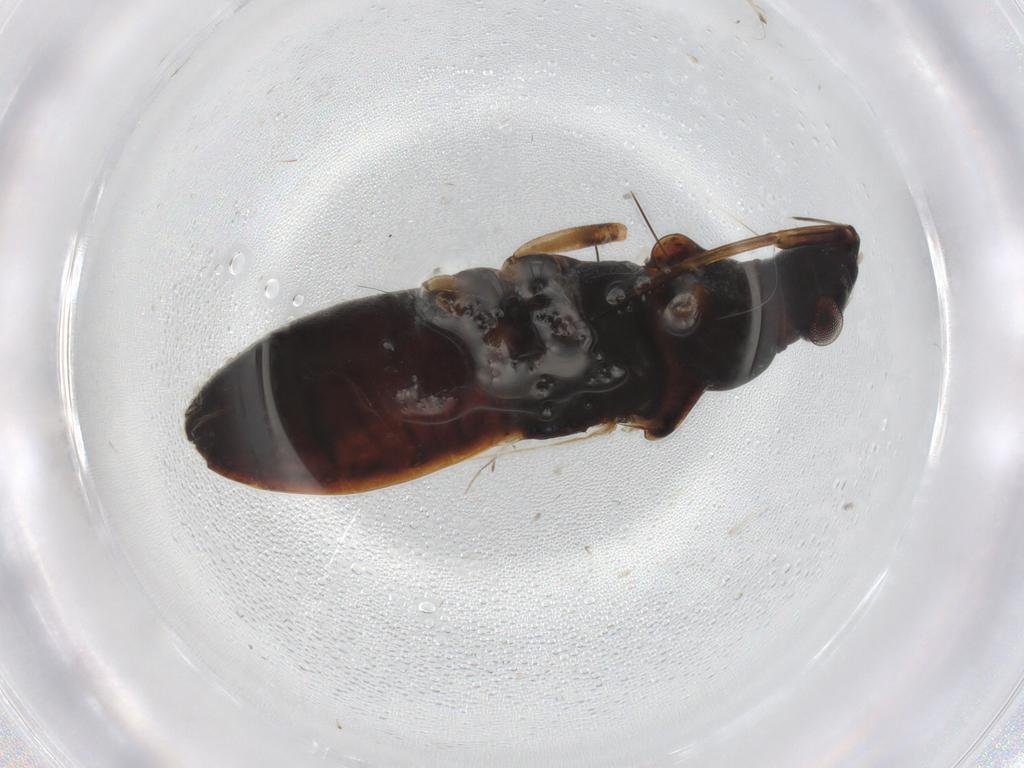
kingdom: Animalia
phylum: Arthropoda
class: Insecta
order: Hemiptera
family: Rhyparochromidae
